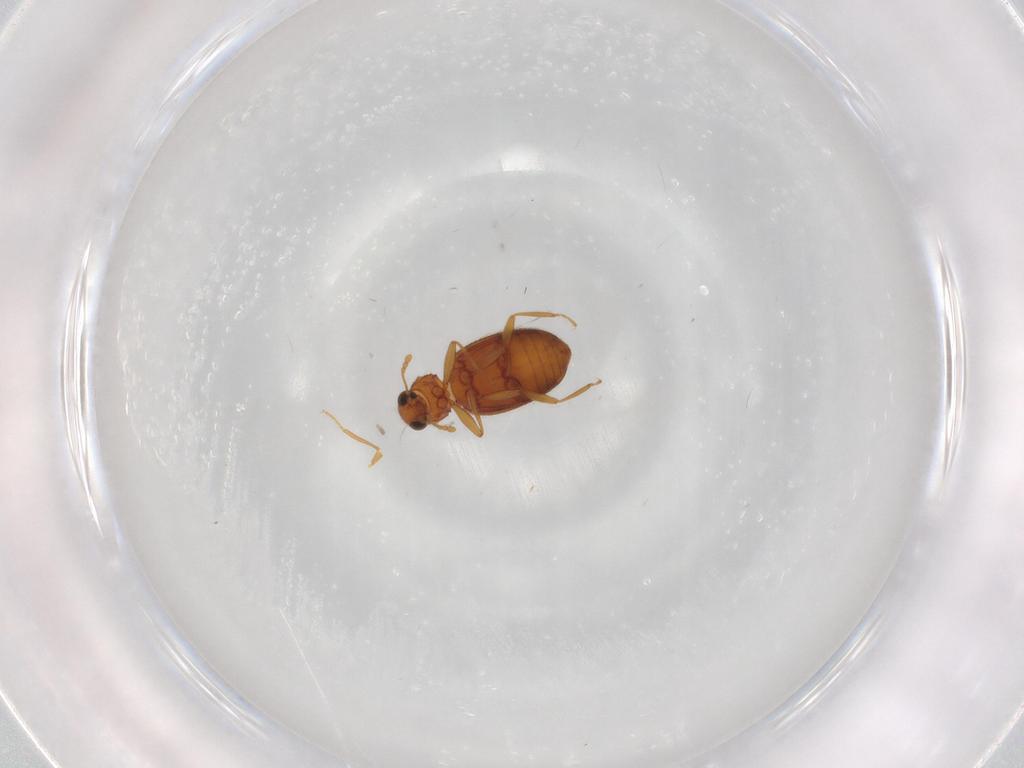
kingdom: Animalia
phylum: Arthropoda
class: Insecta
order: Coleoptera
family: Latridiidae
